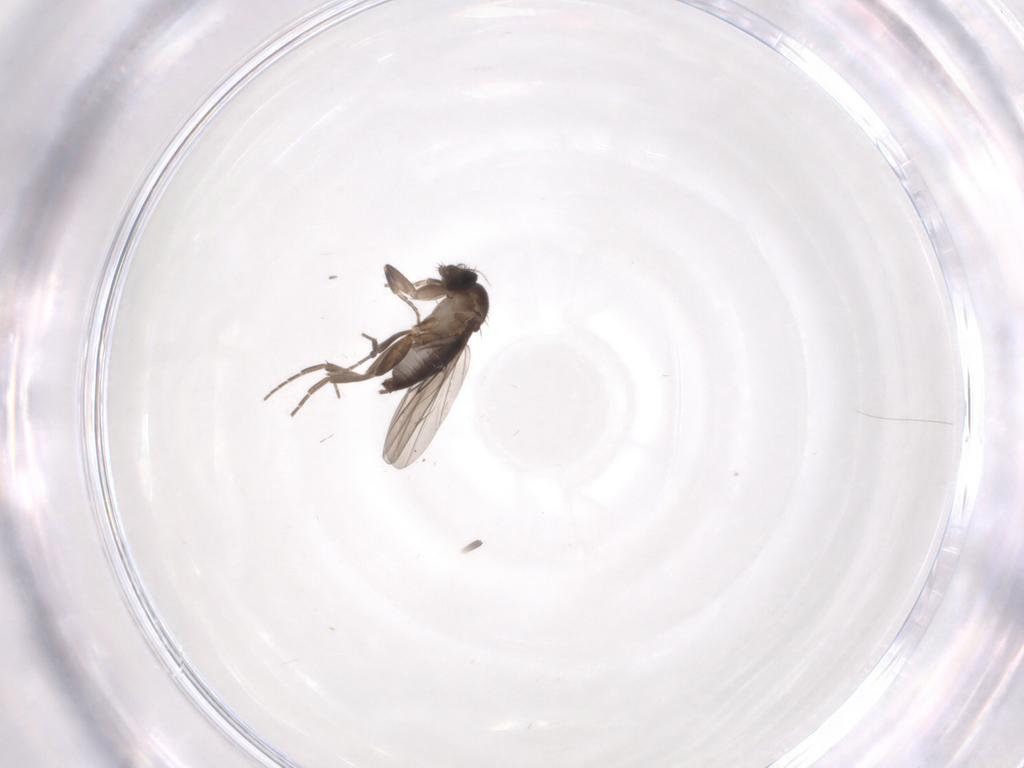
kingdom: Animalia
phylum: Arthropoda
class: Insecta
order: Diptera
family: Phoridae
